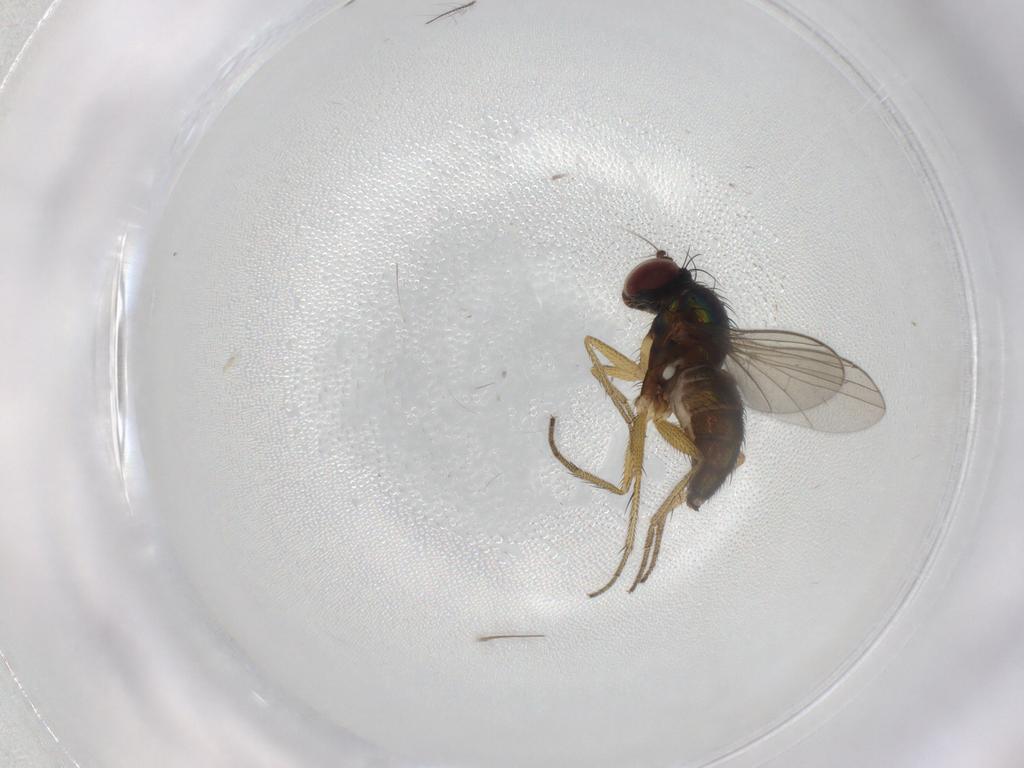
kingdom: Animalia
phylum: Arthropoda
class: Insecta
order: Diptera
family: Chironomidae
